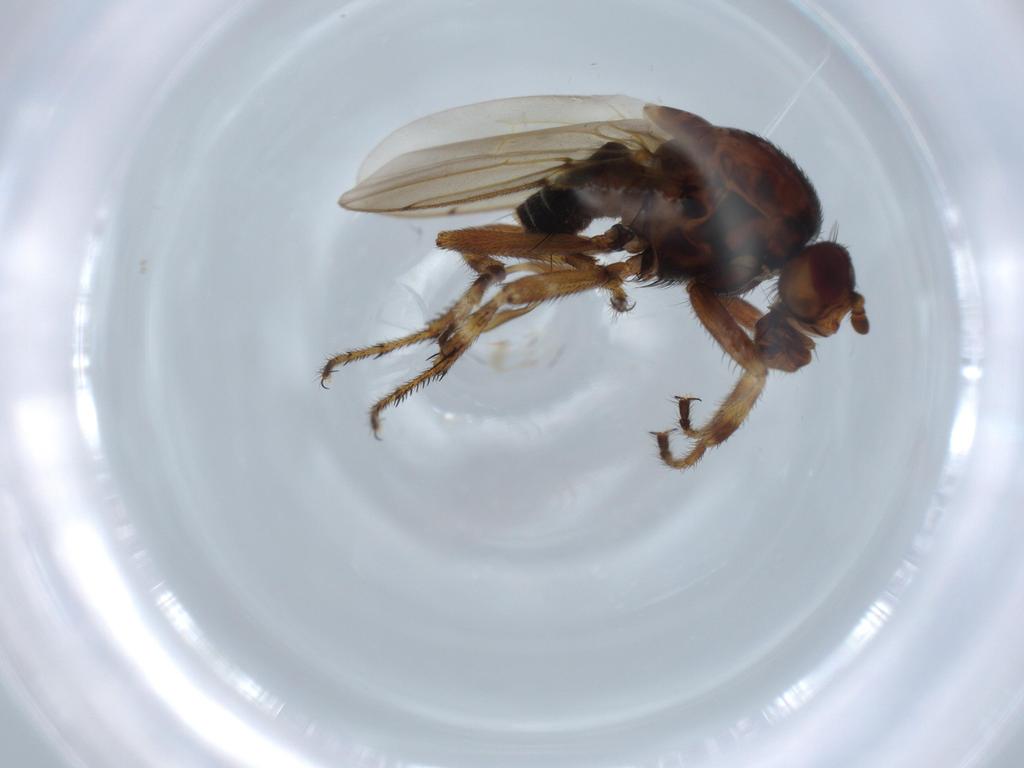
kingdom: Animalia
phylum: Arthropoda
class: Insecta
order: Diptera
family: Sphaeroceridae
